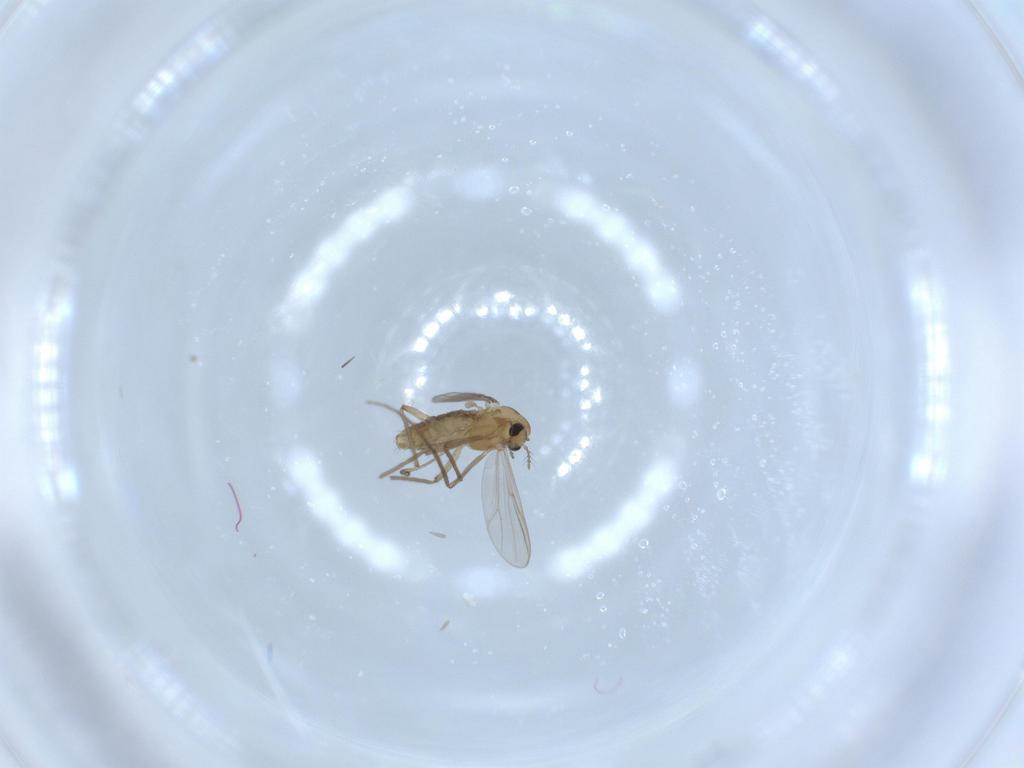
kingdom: Animalia
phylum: Arthropoda
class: Insecta
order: Diptera
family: Chironomidae
